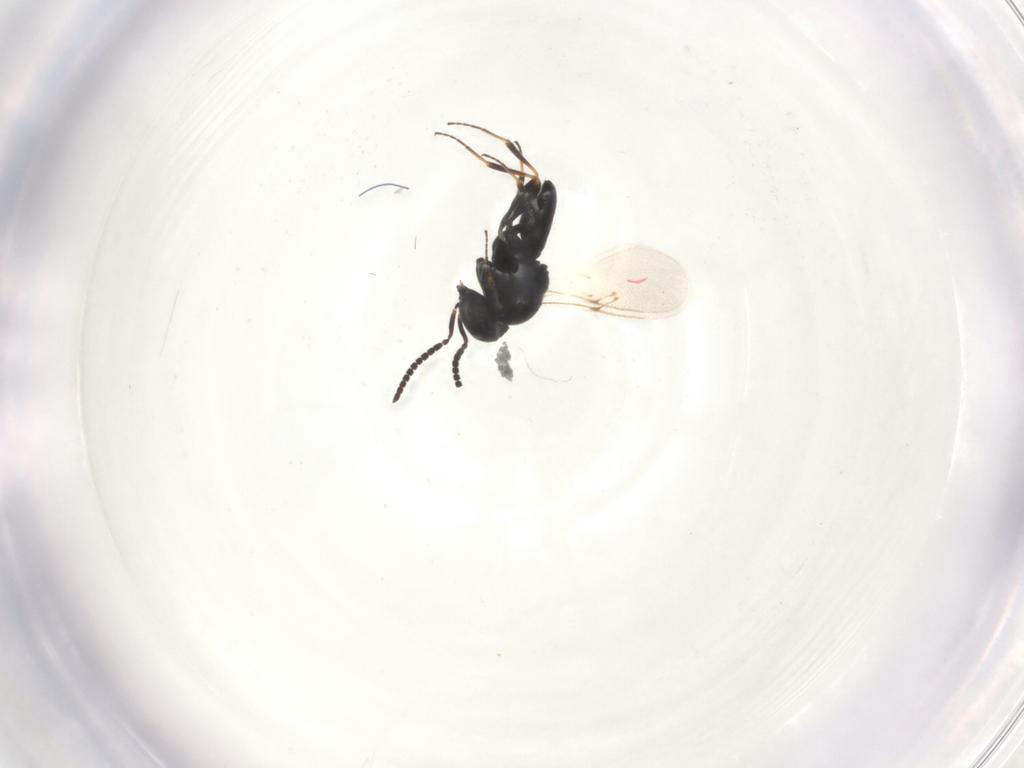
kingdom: Animalia
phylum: Arthropoda
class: Insecta
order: Hymenoptera
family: Scelionidae
